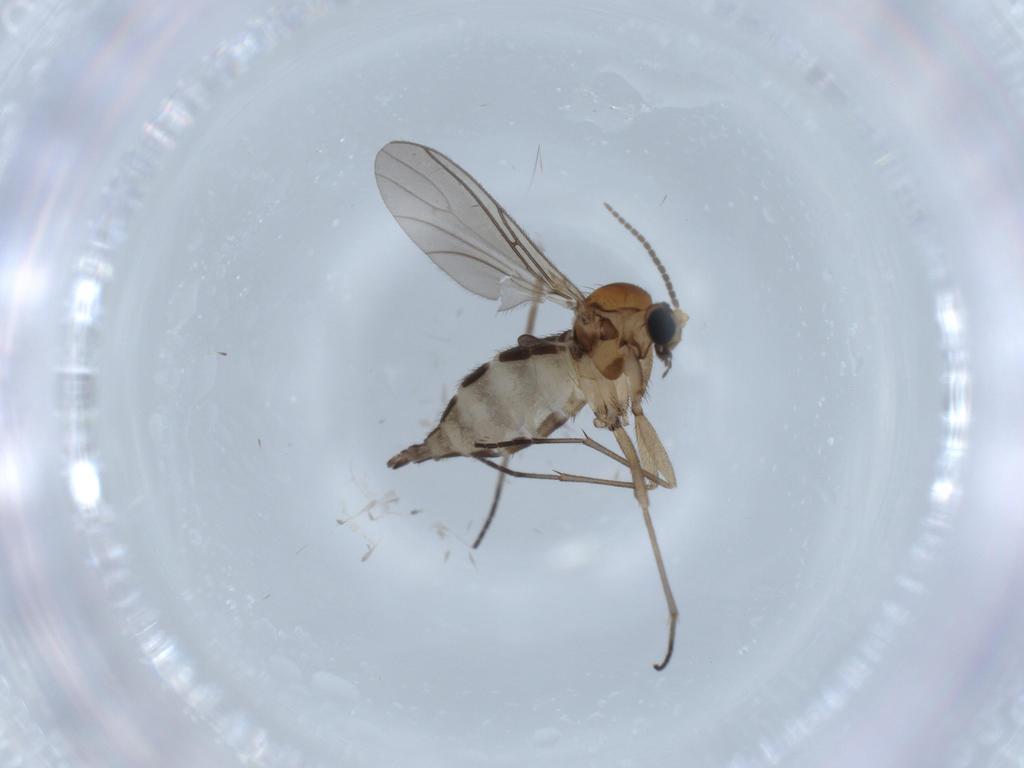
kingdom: Animalia
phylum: Arthropoda
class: Insecta
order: Diptera
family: Sciaridae
